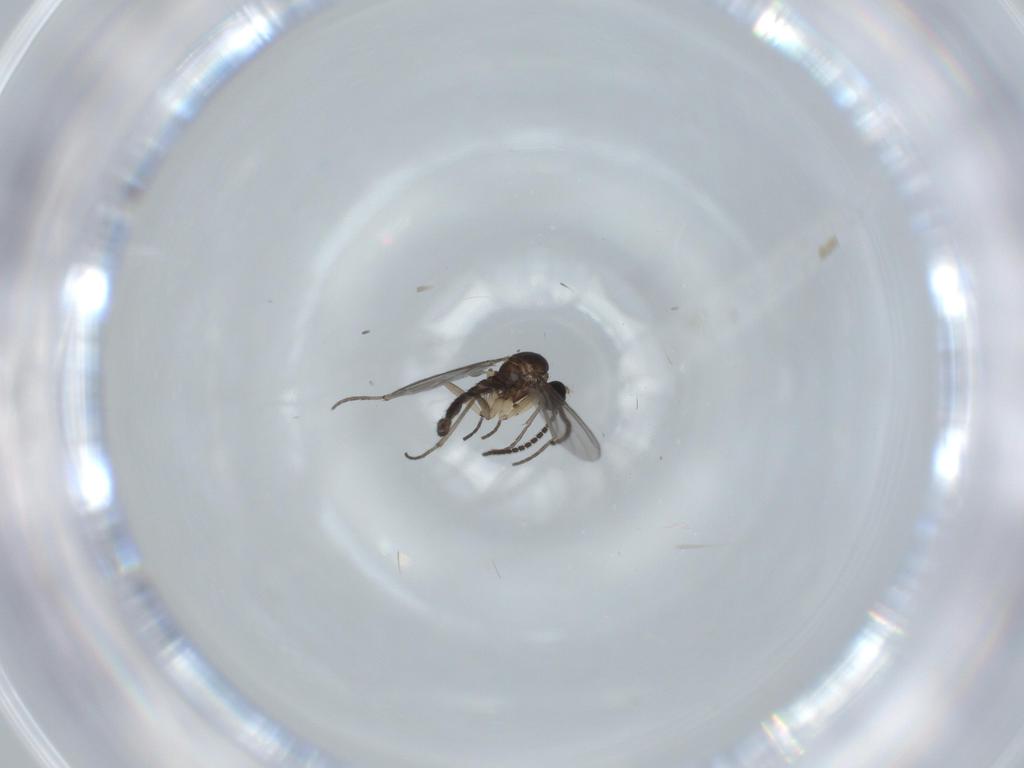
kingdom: Animalia
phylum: Arthropoda
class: Insecta
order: Diptera
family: Sciaridae
